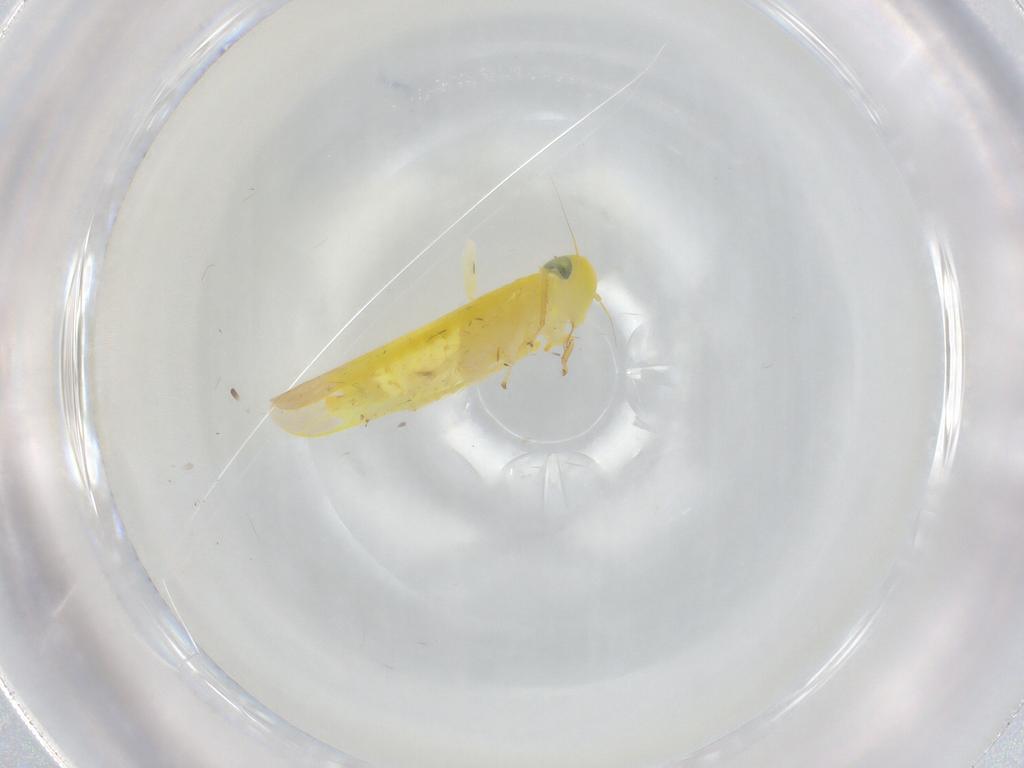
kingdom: Animalia
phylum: Arthropoda
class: Insecta
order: Hemiptera
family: Cicadellidae
